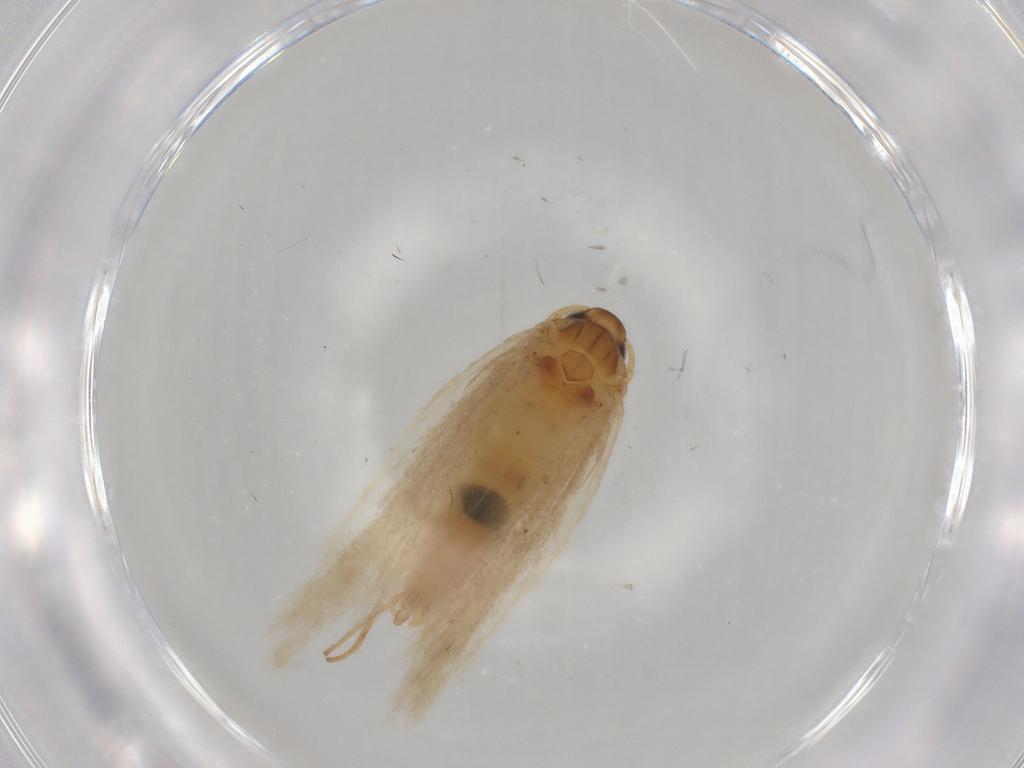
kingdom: Animalia
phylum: Arthropoda
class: Insecta
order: Lepidoptera
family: Gelechiidae
